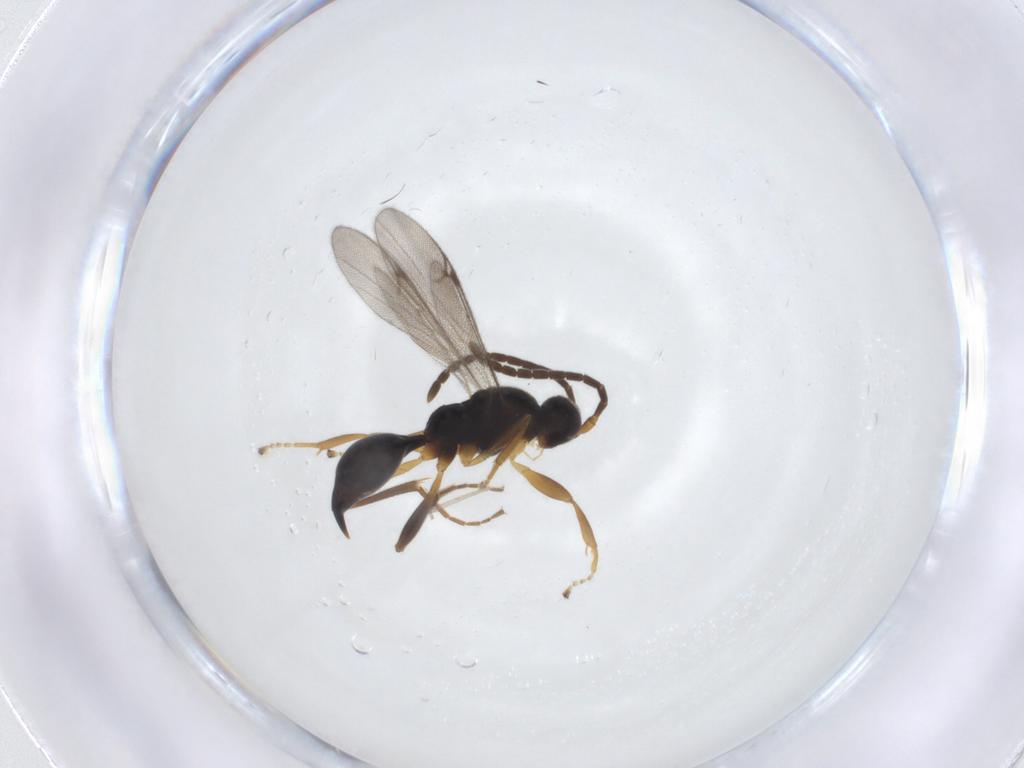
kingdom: Animalia
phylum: Arthropoda
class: Insecta
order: Hymenoptera
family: Proctotrupidae
